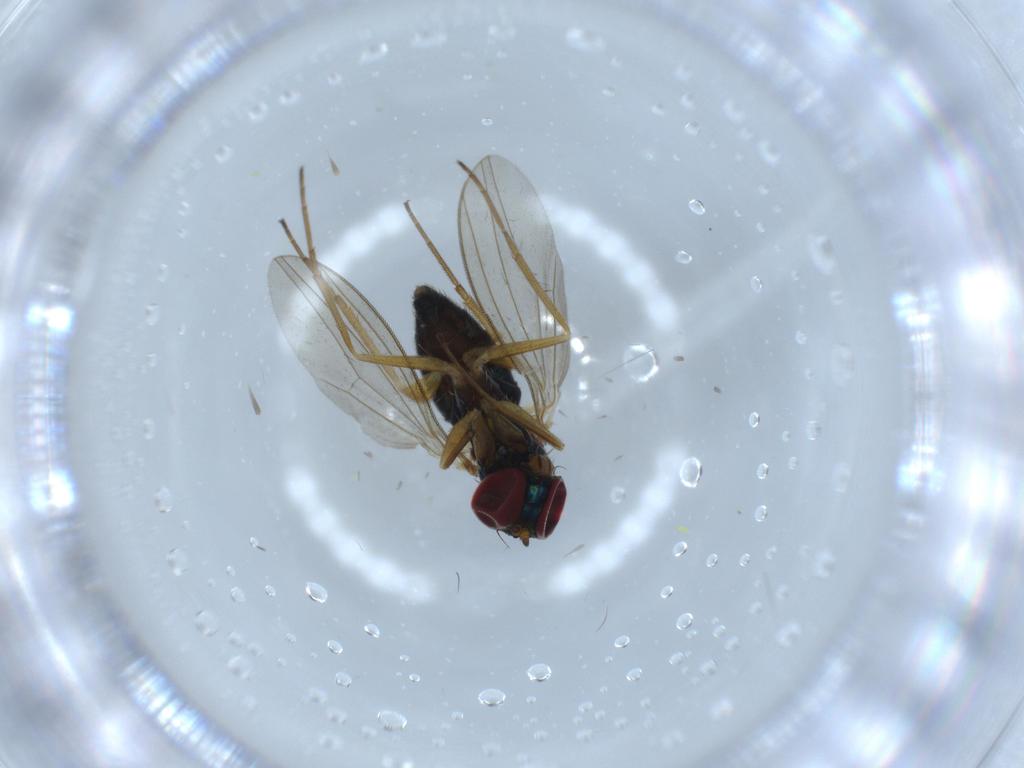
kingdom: Animalia
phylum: Arthropoda
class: Insecta
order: Diptera
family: Dolichopodidae
